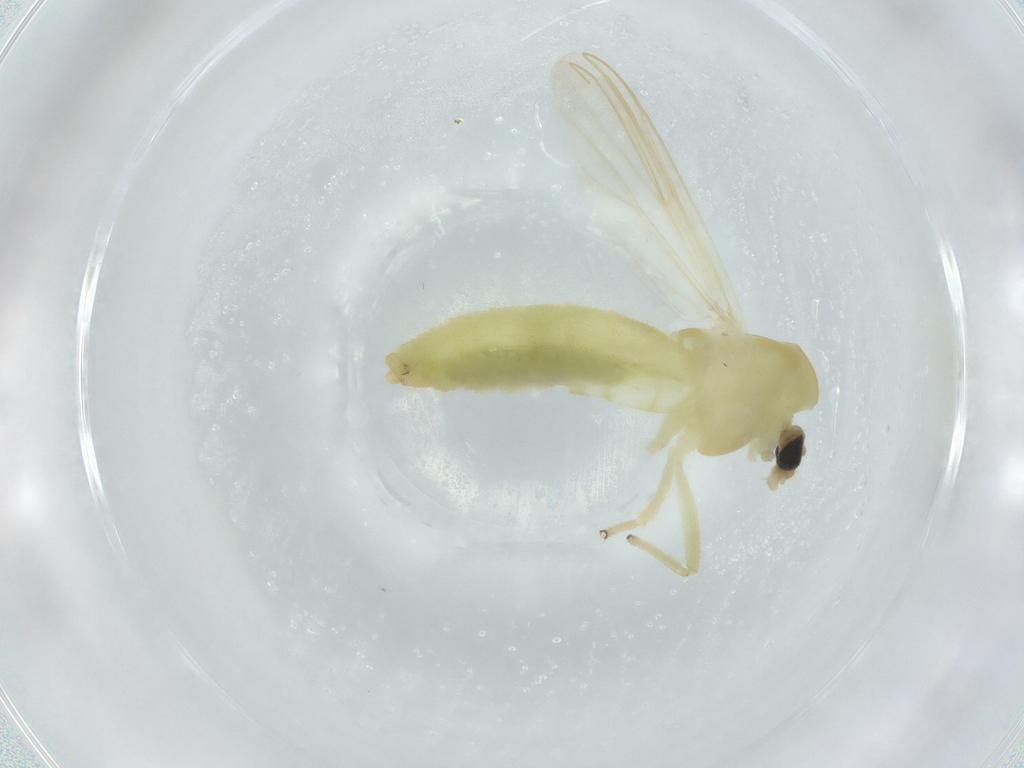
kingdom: Animalia
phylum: Arthropoda
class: Insecta
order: Diptera
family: Chironomidae
